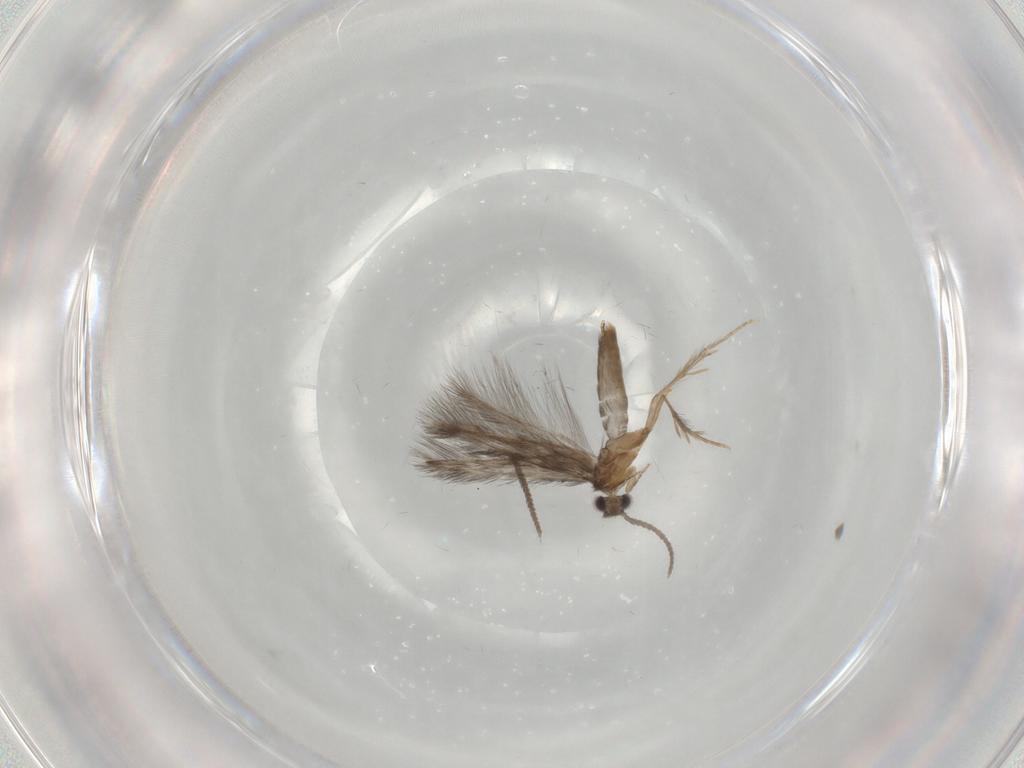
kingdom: Animalia
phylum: Arthropoda
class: Insecta
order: Trichoptera
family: Hydroptilidae
